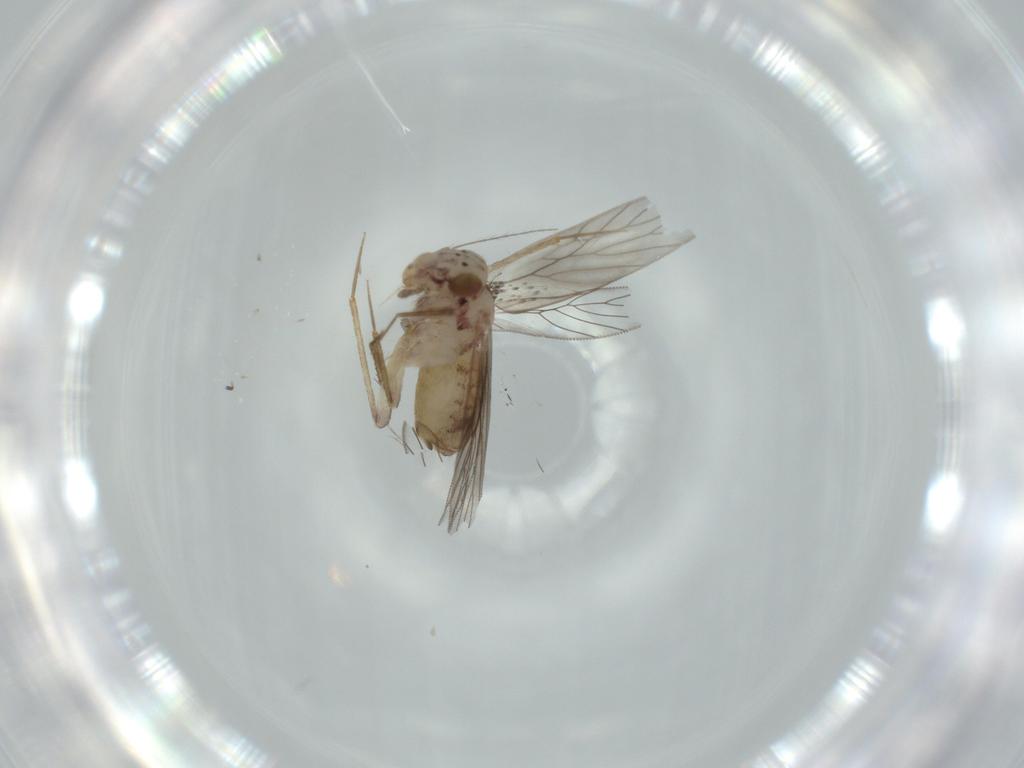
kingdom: Animalia
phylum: Arthropoda
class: Insecta
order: Psocodea
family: Lepidopsocidae
